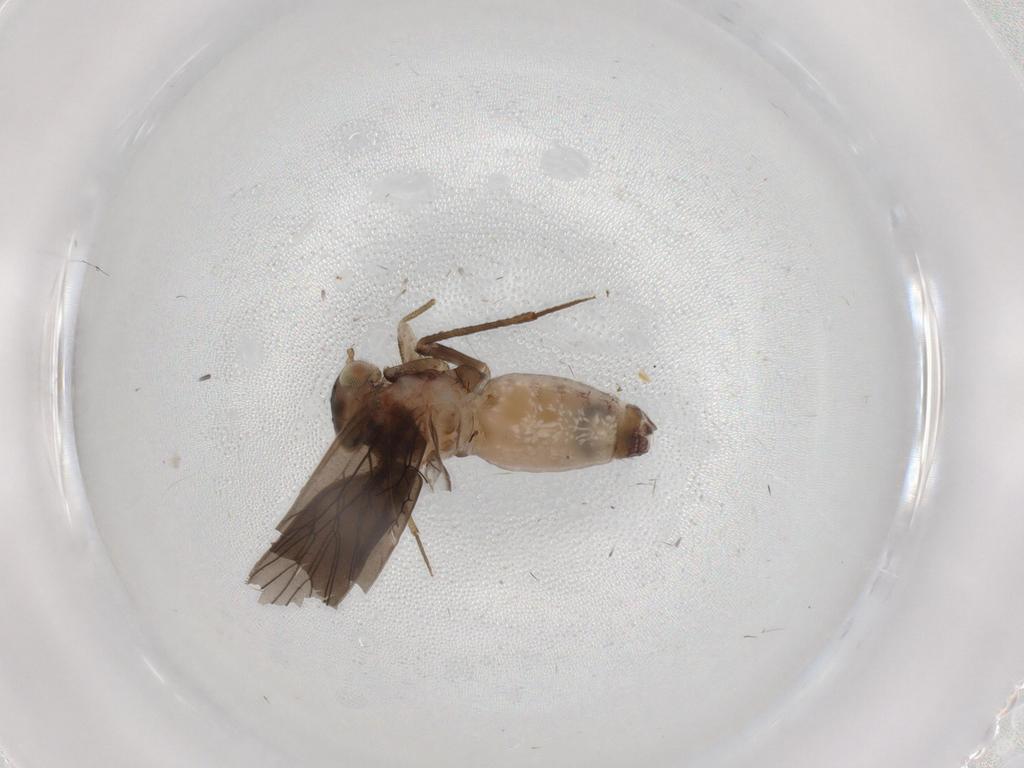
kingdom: Animalia
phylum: Arthropoda
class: Insecta
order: Psocodea
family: Lepidopsocidae
